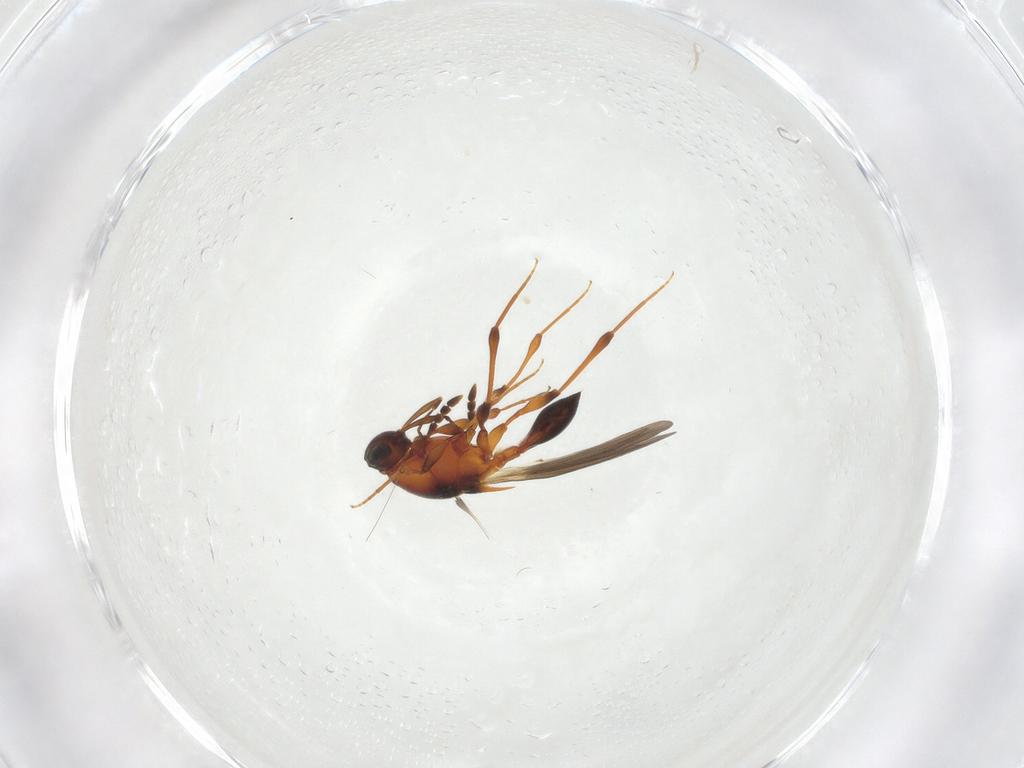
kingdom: Animalia
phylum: Arthropoda
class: Insecta
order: Hymenoptera
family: Platygastridae
